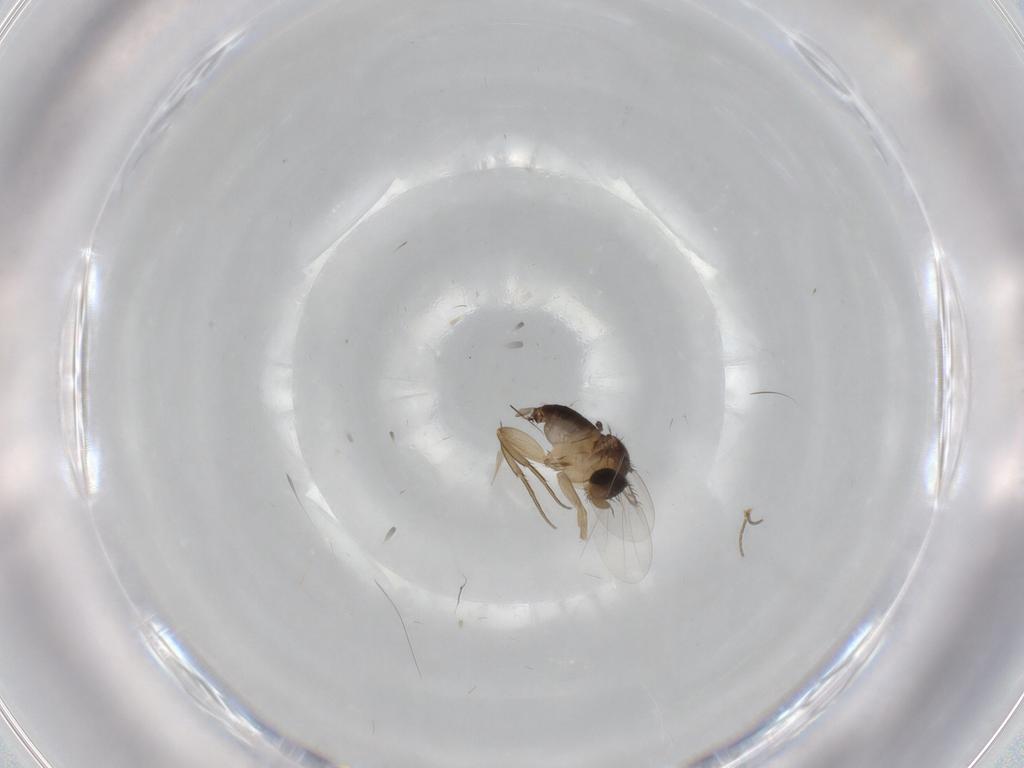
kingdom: Animalia
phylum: Arthropoda
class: Insecta
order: Diptera
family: Phoridae
